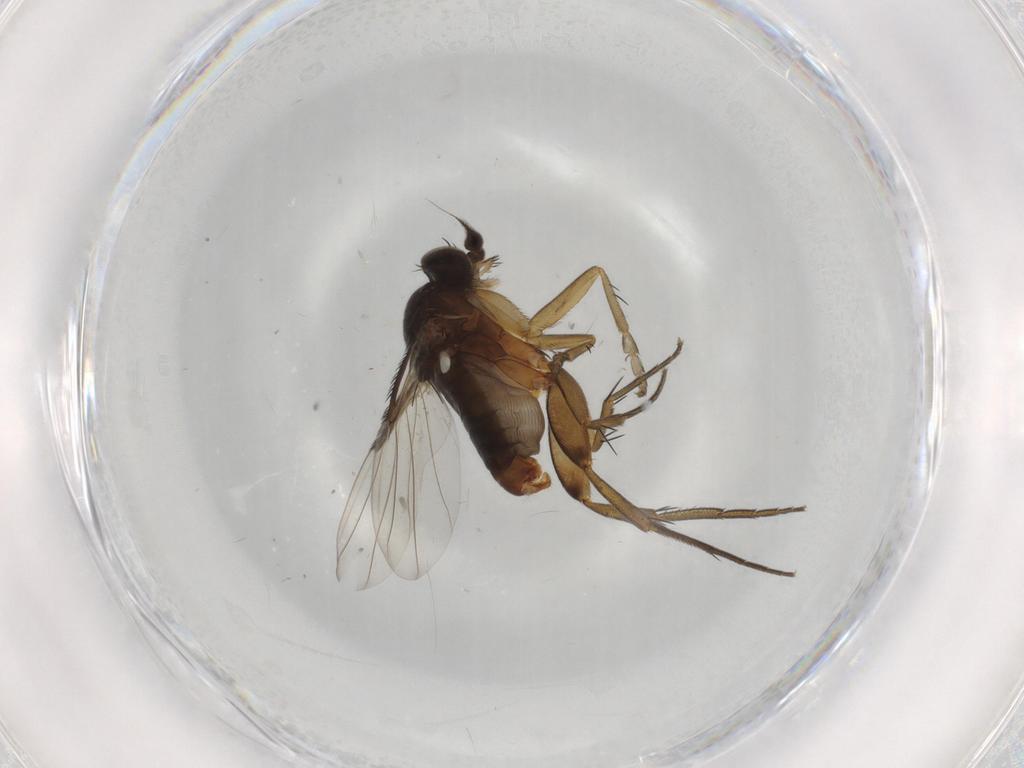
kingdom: Animalia
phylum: Arthropoda
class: Insecta
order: Diptera
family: Phoridae
